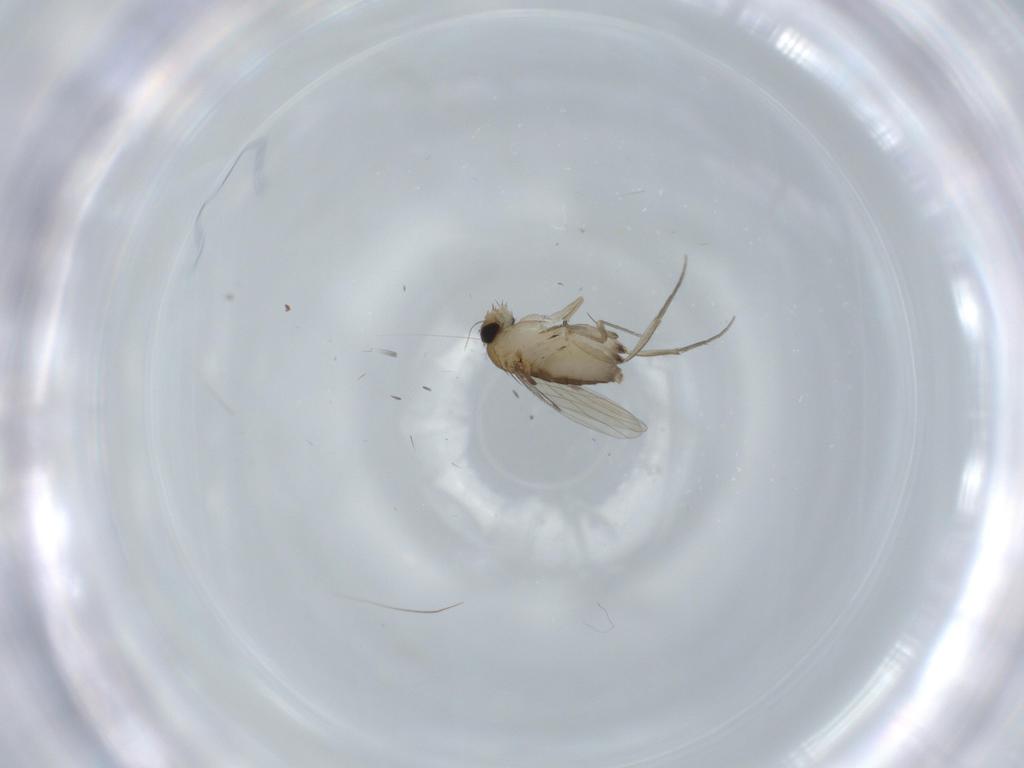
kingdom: Animalia
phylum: Arthropoda
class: Insecta
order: Diptera
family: Phoridae
